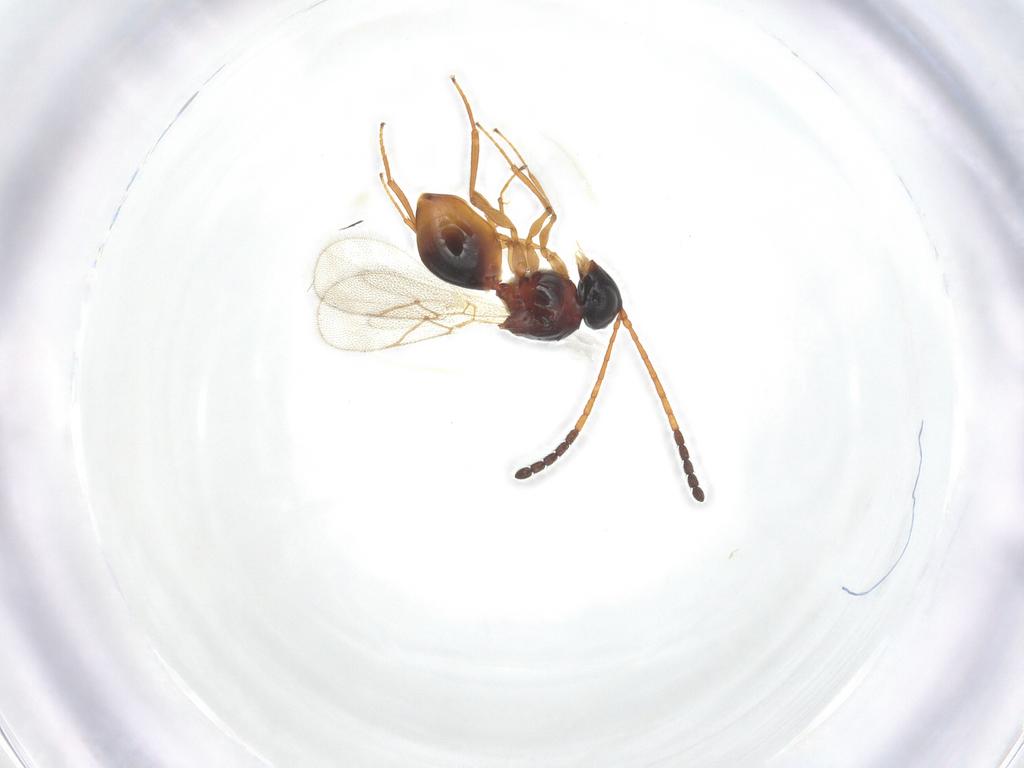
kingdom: Animalia
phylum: Arthropoda
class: Insecta
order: Hymenoptera
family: Figitidae
